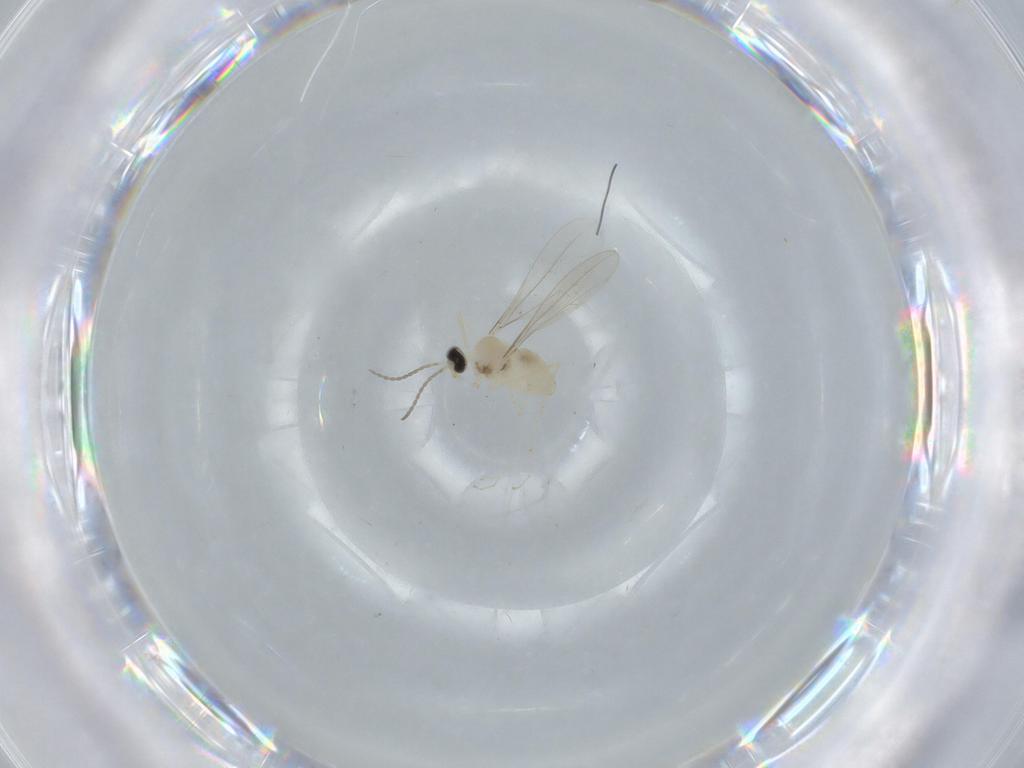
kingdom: Animalia
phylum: Arthropoda
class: Insecta
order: Diptera
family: Cecidomyiidae
